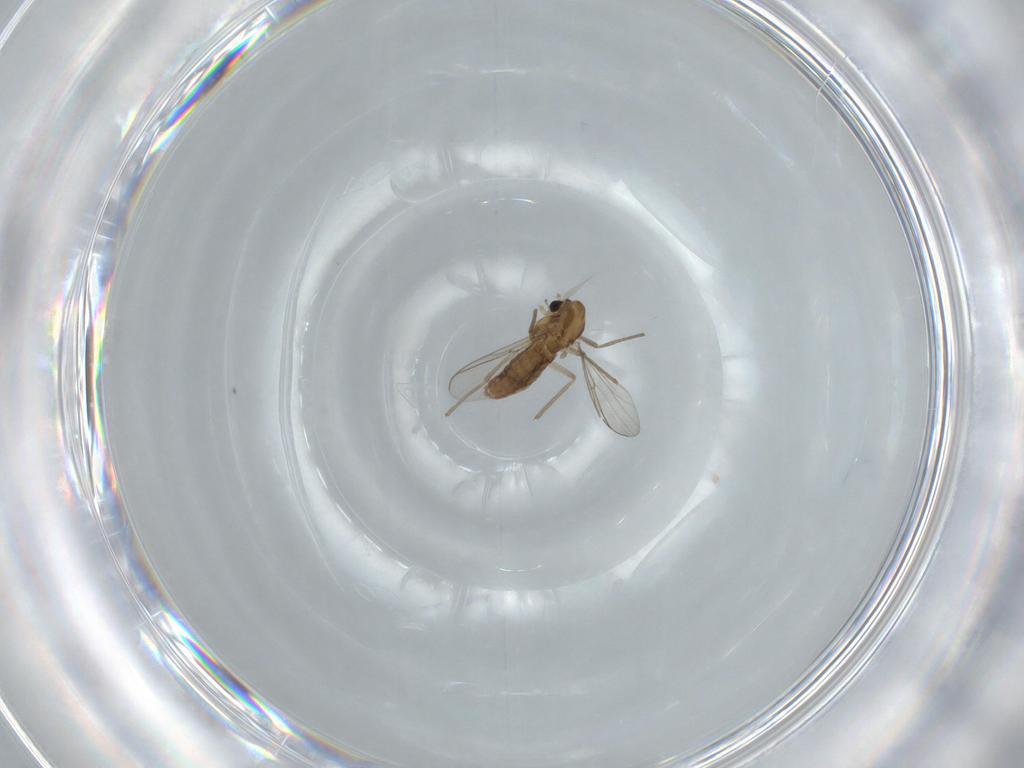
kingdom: Animalia
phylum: Arthropoda
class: Insecta
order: Diptera
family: Chironomidae
